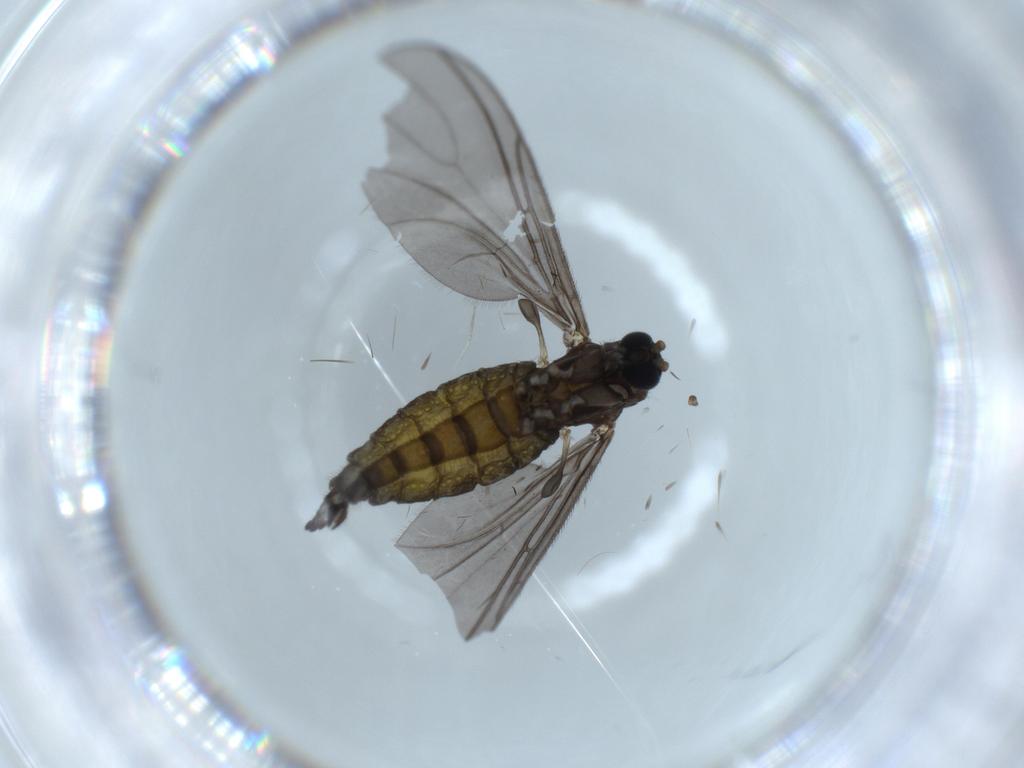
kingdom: Animalia
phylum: Arthropoda
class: Insecta
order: Diptera
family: Sciaridae
